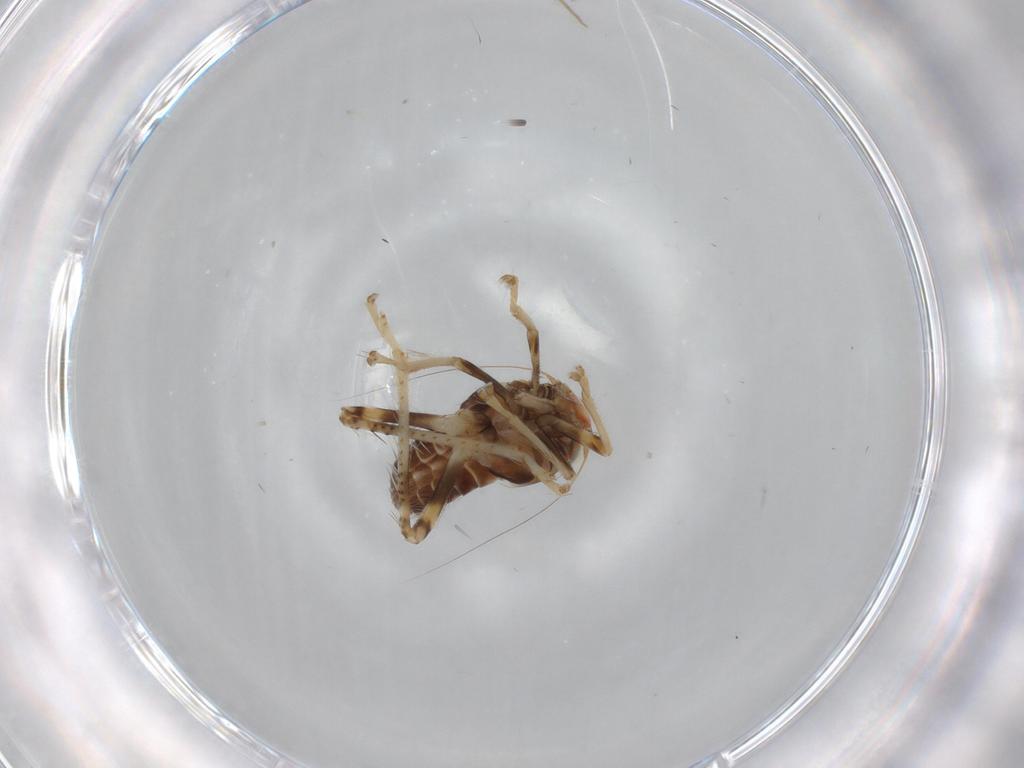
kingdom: Animalia
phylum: Arthropoda
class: Insecta
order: Hemiptera
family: Cicadellidae
